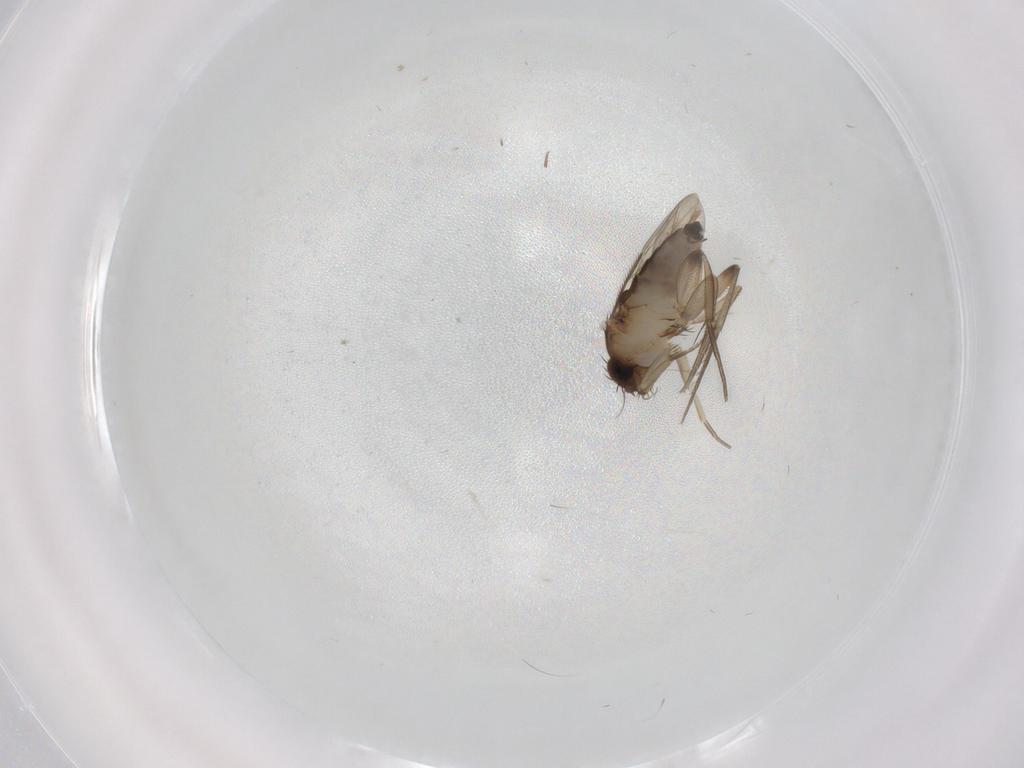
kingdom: Animalia
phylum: Arthropoda
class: Insecta
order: Diptera
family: Phoridae
